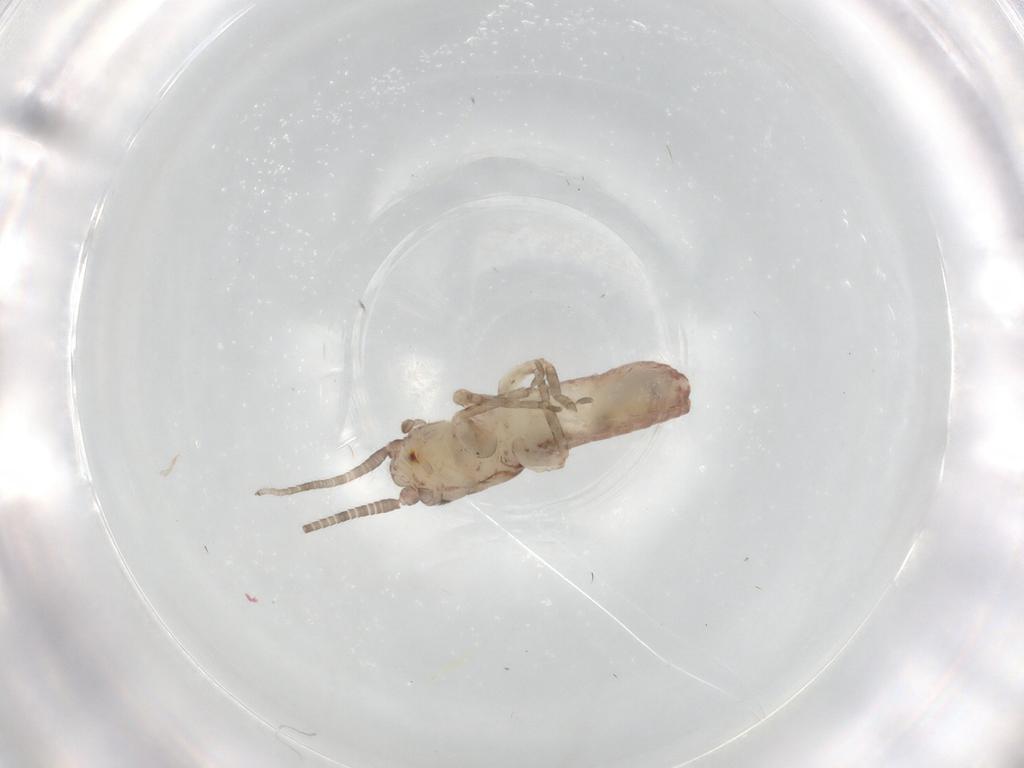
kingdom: Animalia
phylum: Arthropoda
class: Insecta
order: Orthoptera
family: Mogoplistidae
